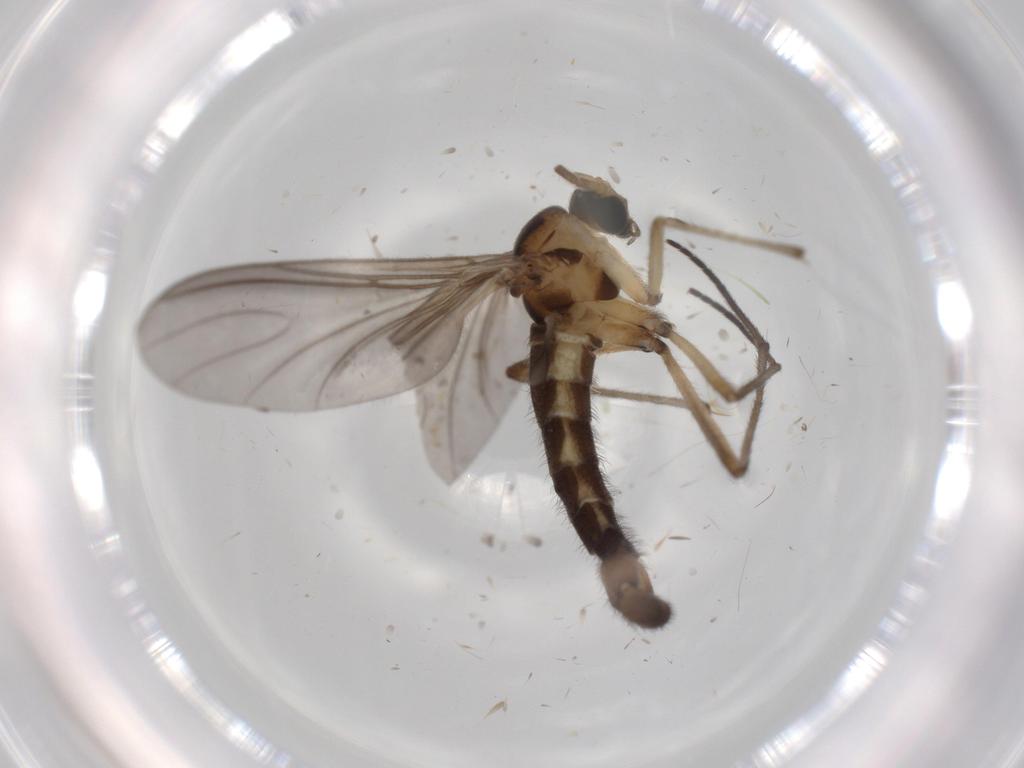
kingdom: Animalia
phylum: Arthropoda
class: Insecta
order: Diptera
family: Sciaridae
